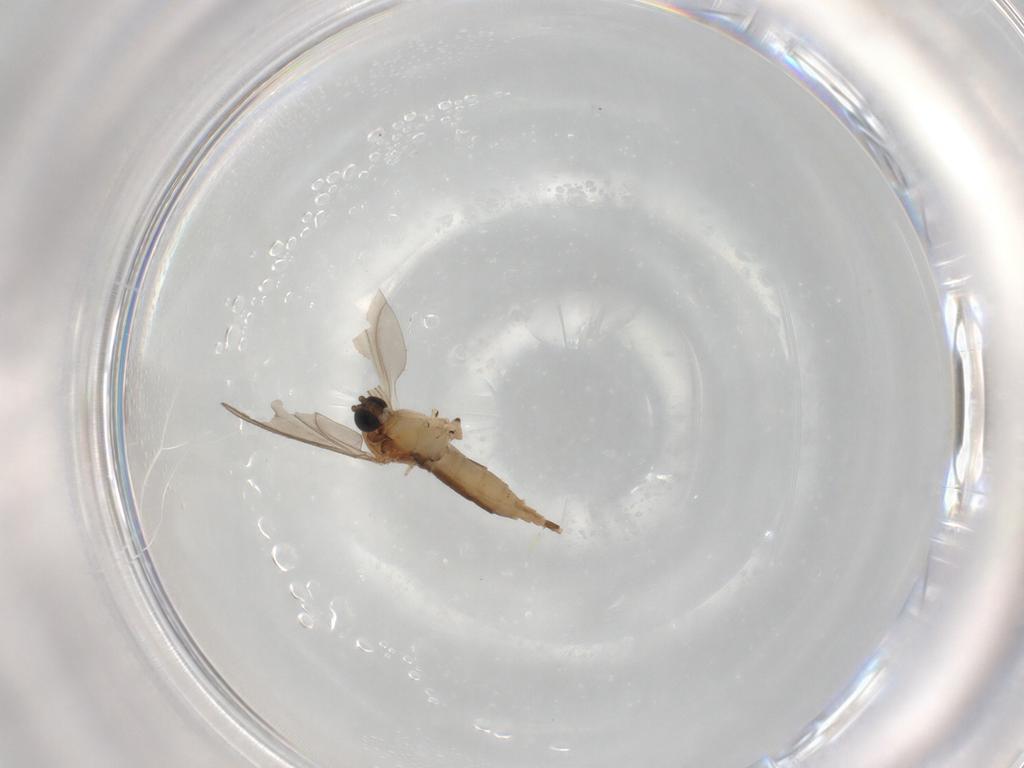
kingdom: Animalia
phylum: Arthropoda
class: Insecta
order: Diptera
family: Sciaridae
